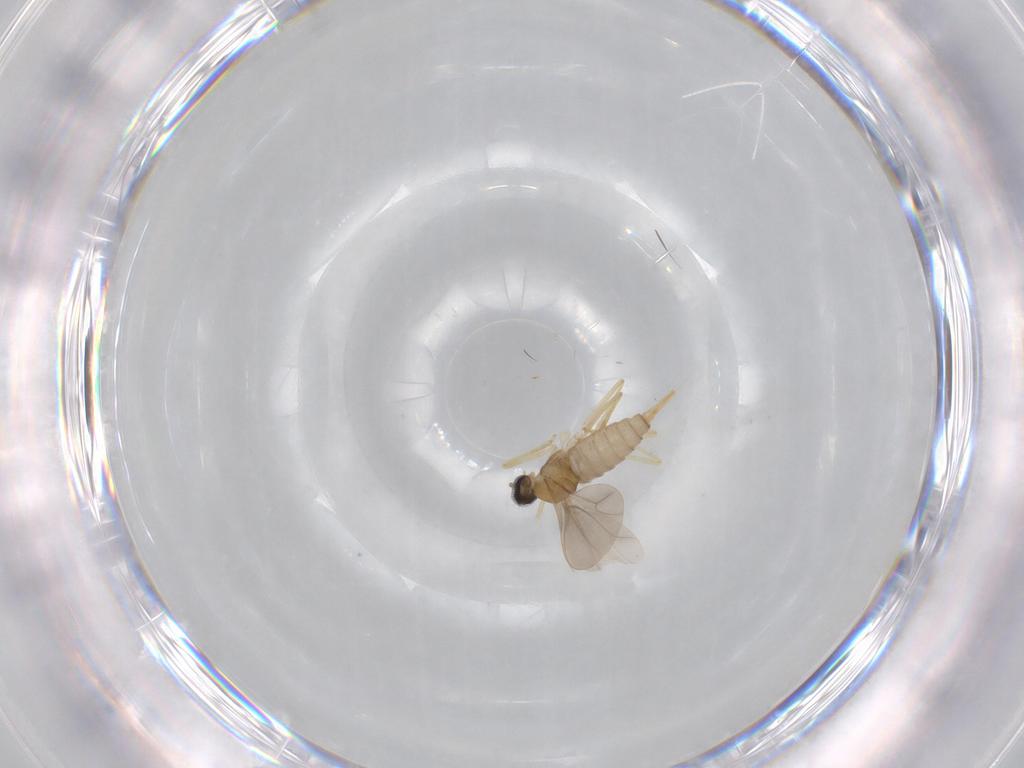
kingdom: Animalia
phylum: Arthropoda
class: Insecta
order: Diptera
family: Cecidomyiidae
